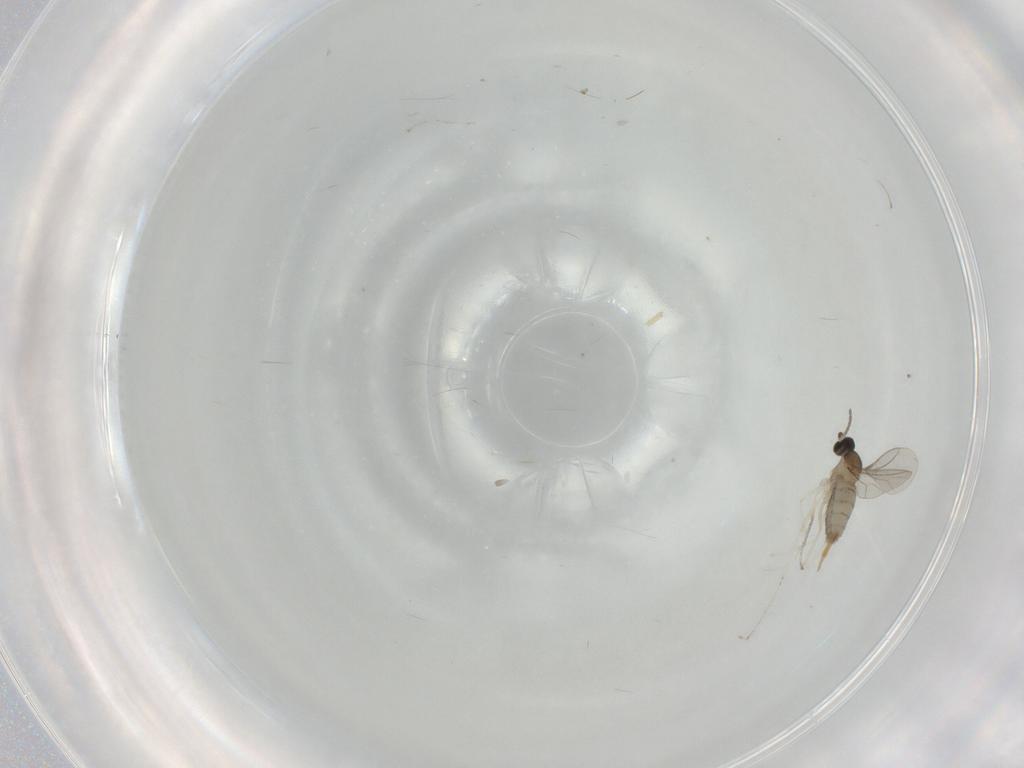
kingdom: Animalia
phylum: Arthropoda
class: Insecta
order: Diptera
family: Cecidomyiidae
